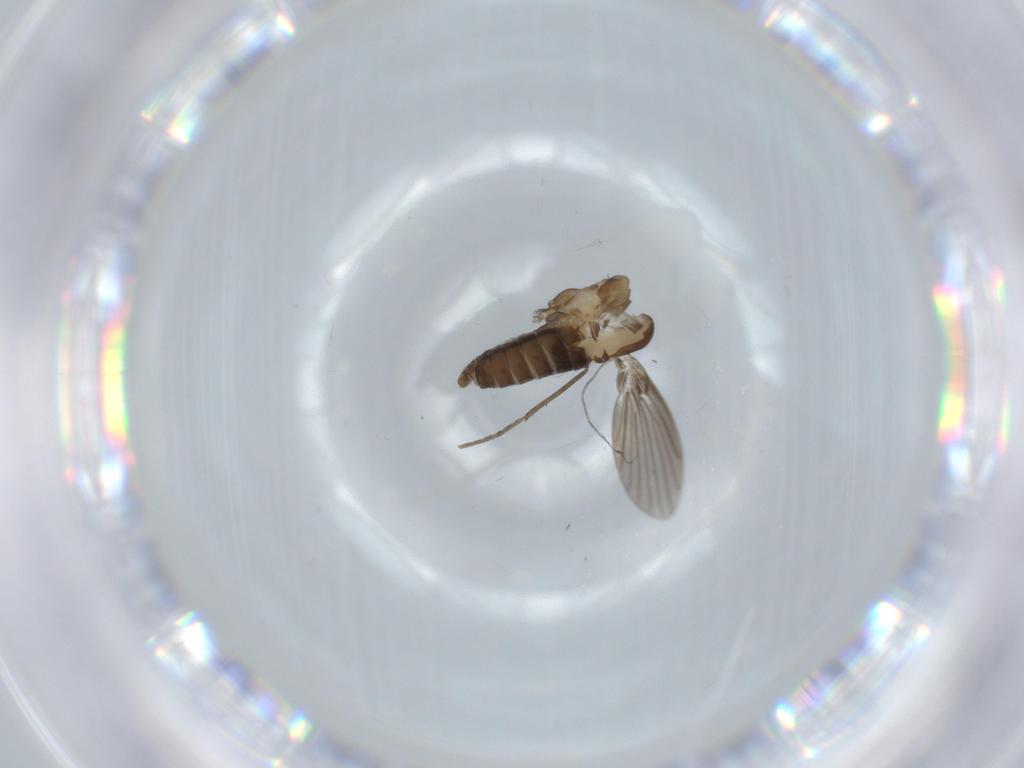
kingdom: Animalia
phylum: Arthropoda
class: Insecta
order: Diptera
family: Psychodidae
